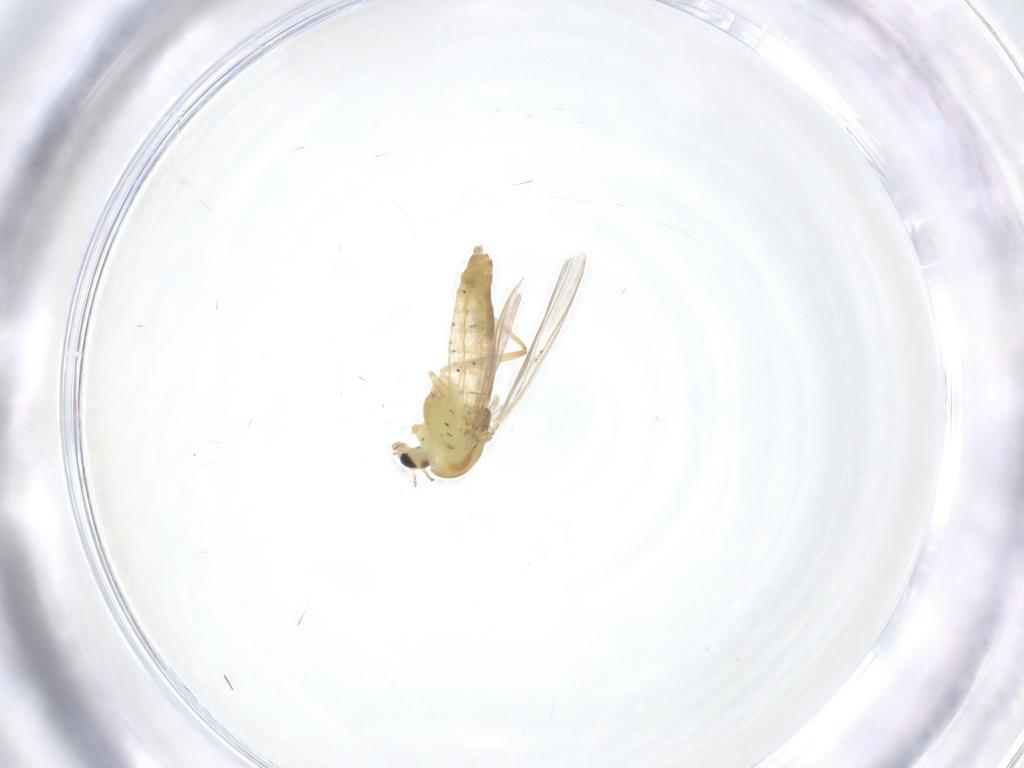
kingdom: Animalia
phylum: Arthropoda
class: Insecta
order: Diptera
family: Chironomidae
